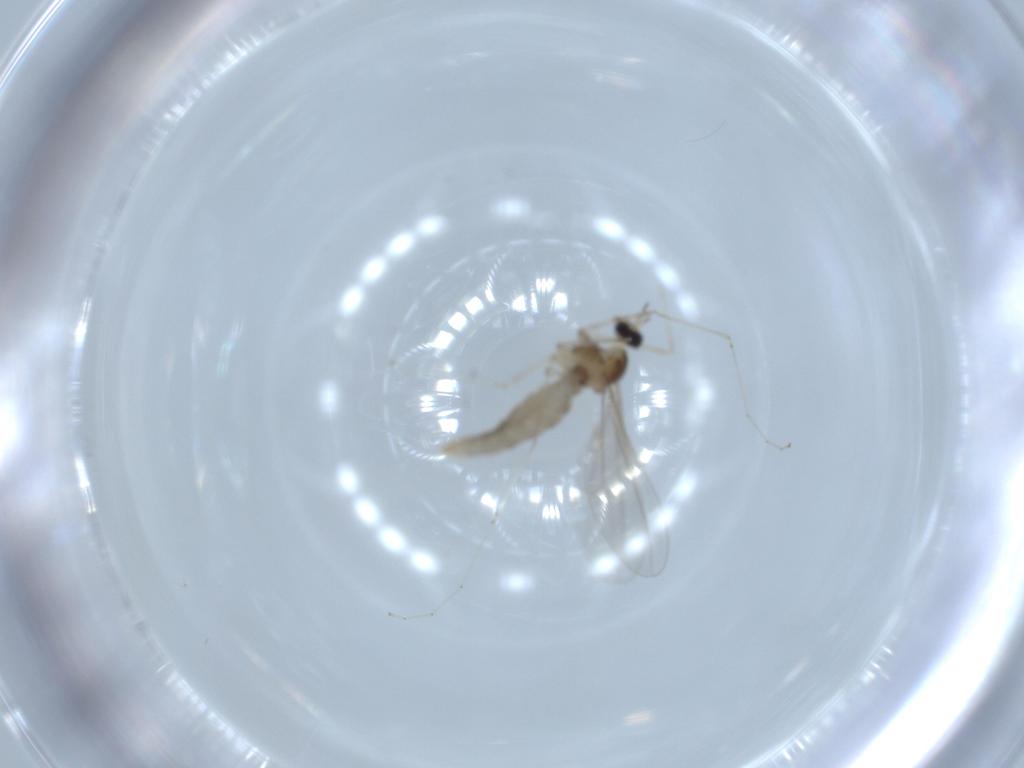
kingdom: Animalia
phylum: Arthropoda
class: Insecta
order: Diptera
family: Cecidomyiidae
